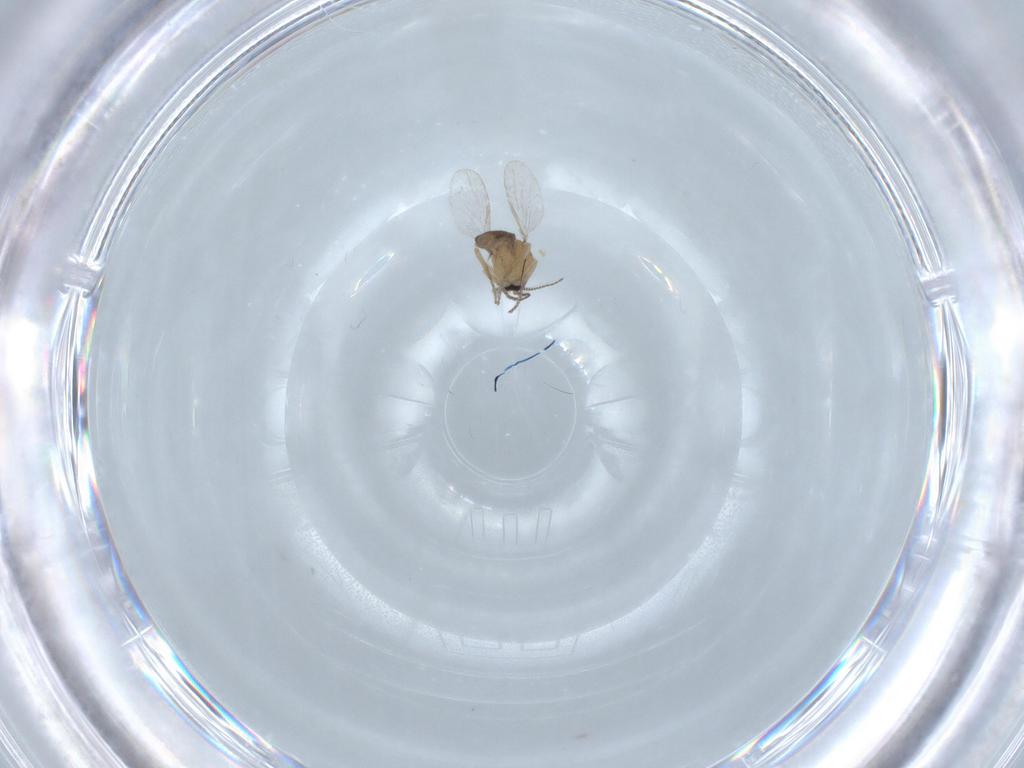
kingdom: Animalia
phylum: Arthropoda
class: Insecta
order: Diptera
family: Ceratopogonidae
